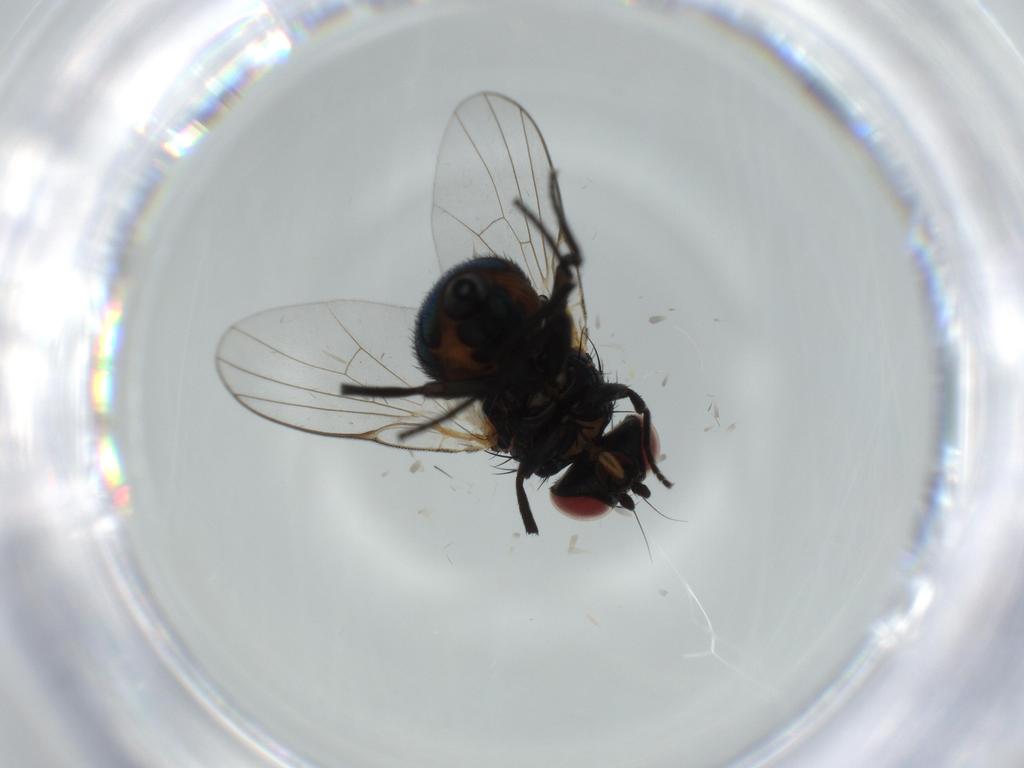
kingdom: Animalia
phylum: Arthropoda
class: Insecta
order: Diptera
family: Agromyzidae
